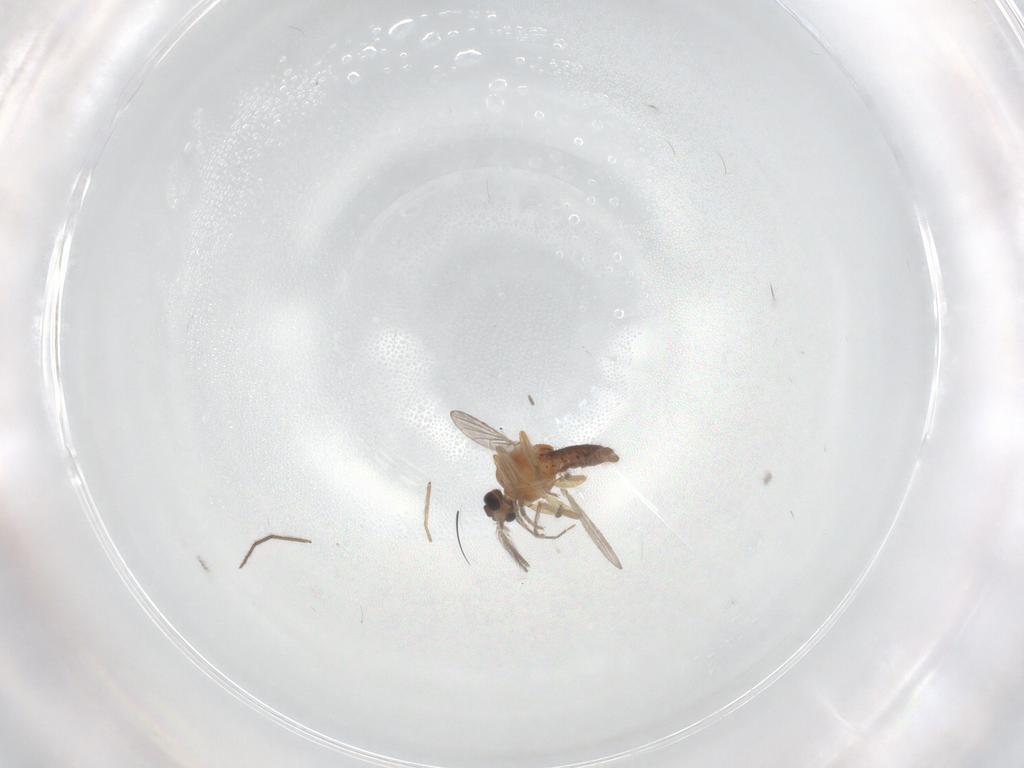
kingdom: Animalia
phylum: Arthropoda
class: Insecta
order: Diptera
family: Ceratopogonidae
